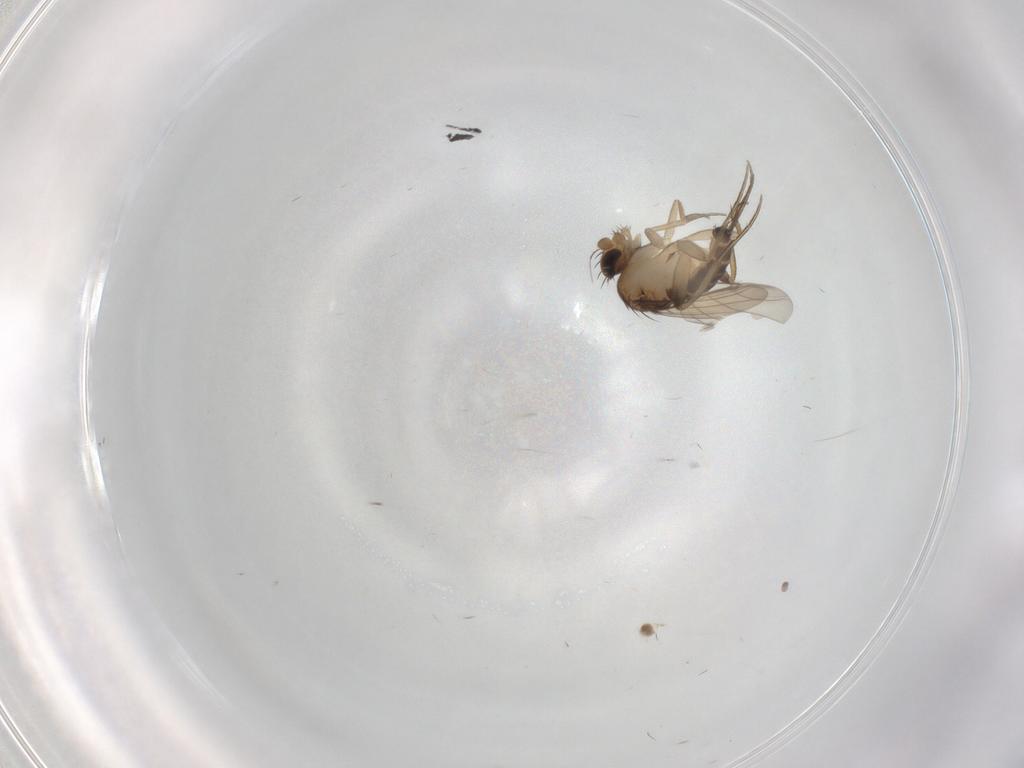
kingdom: Animalia
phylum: Arthropoda
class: Insecta
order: Diptera
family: Phoridae
